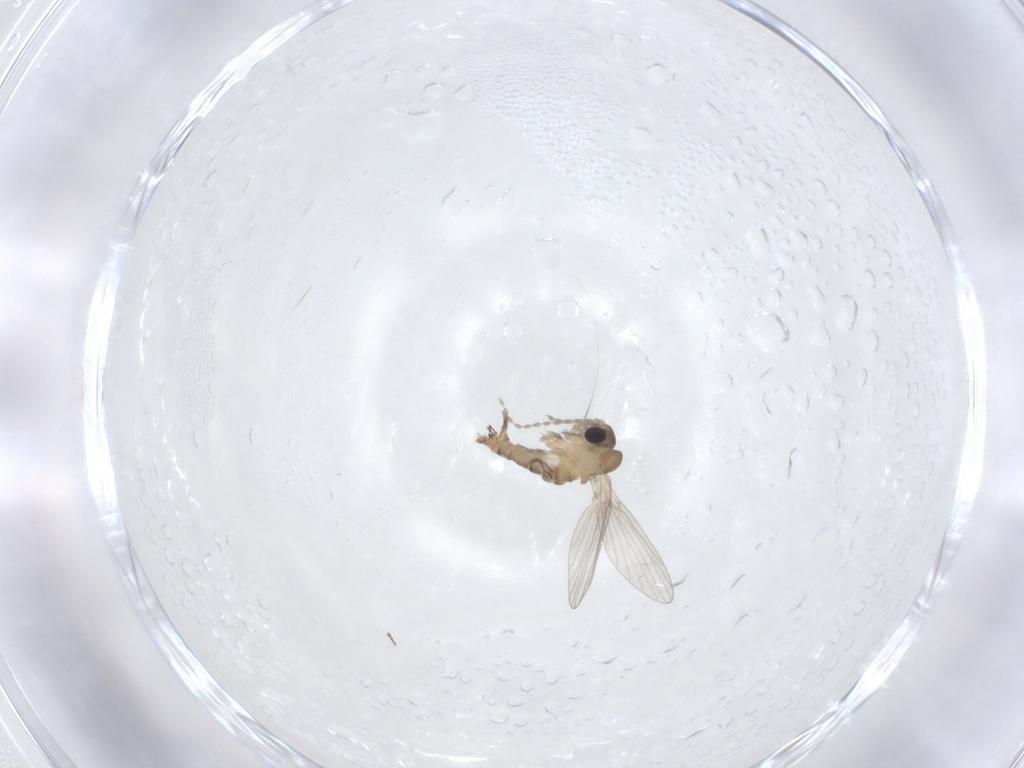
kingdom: Animalia
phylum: Arthropoda
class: Insecta
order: Diptera
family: Psychodidae
